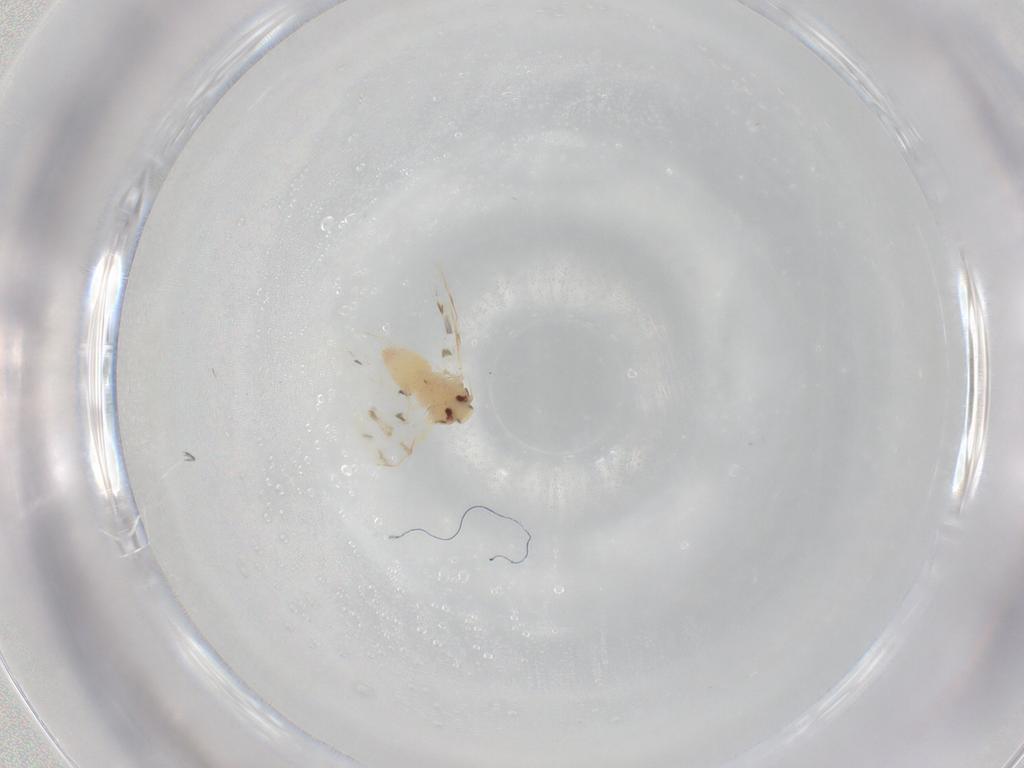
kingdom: Animalia
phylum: Arthropoda
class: Insecta
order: Hemiptera
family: Aleyrodidae
